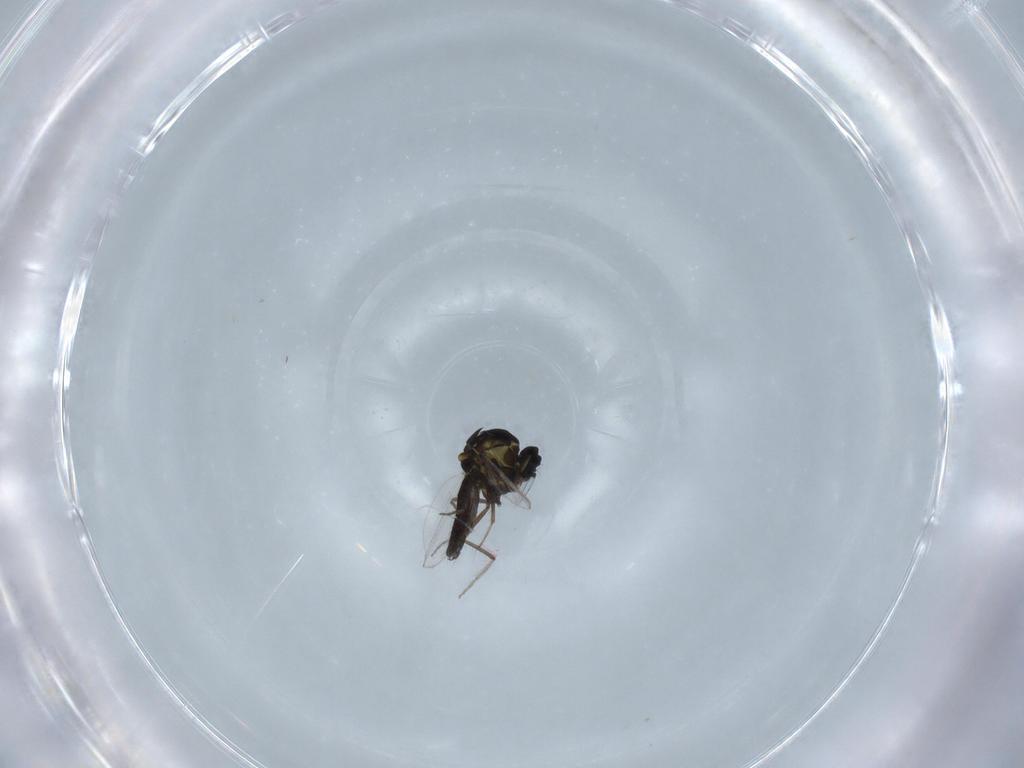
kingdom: Animalia
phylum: Arthropoda
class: Insecta
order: Diptera
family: Ceratopogonidae
